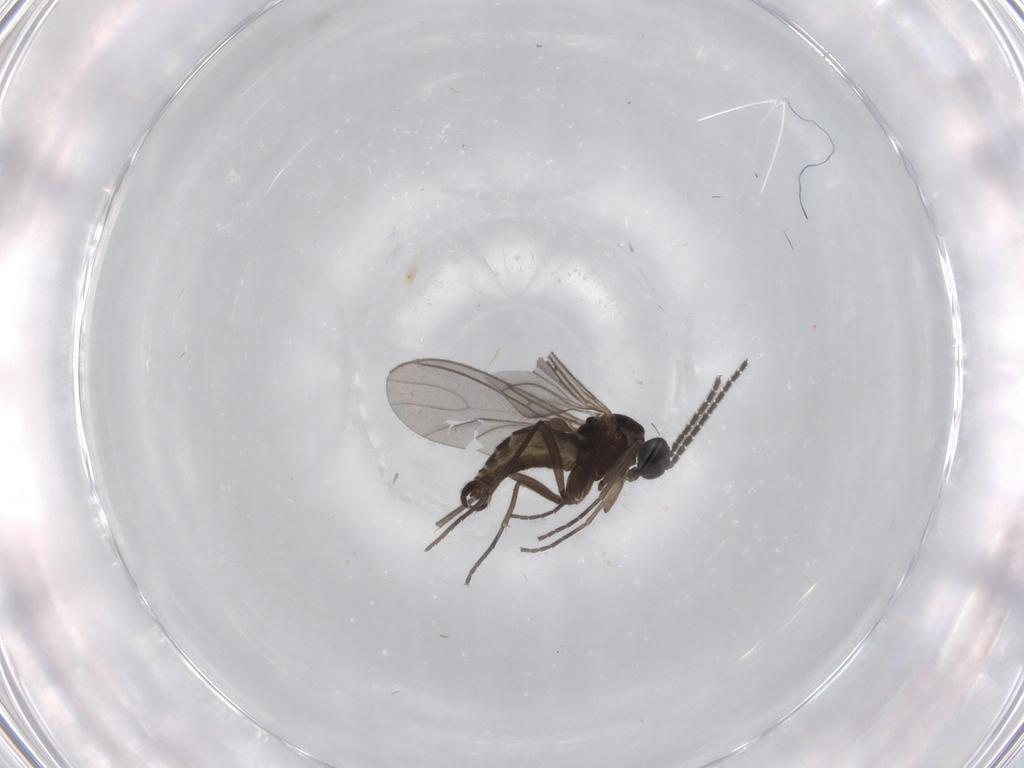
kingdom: Animalia
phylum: Arthropoda
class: Insecta
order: Diptera
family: Sciaridae
